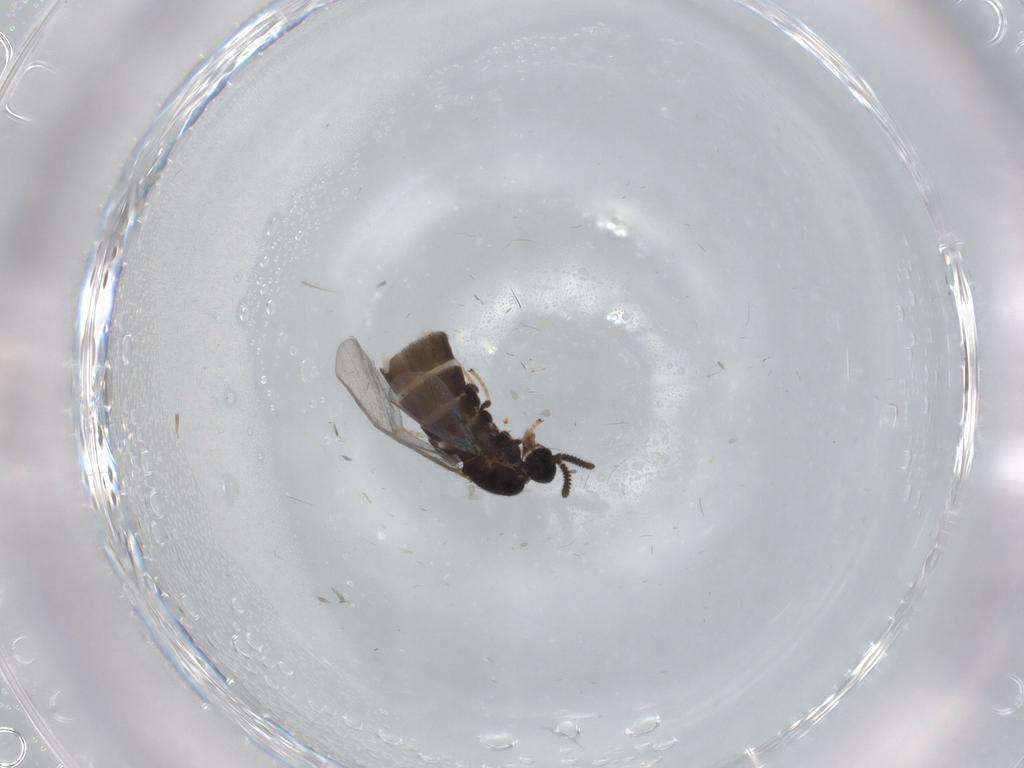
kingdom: Animalia
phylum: Arthropoda
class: Insecta
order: Diptera
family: Scatopsidae
